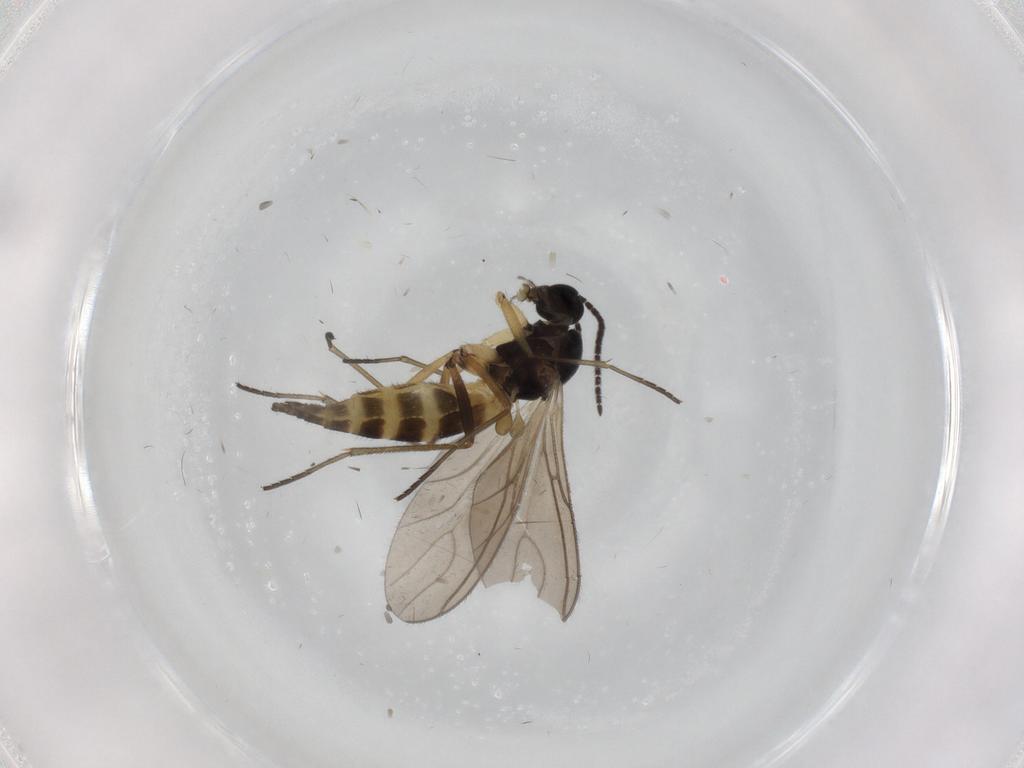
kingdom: Animalia
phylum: Arthropoda
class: Insecta
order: Diptera
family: Sciaridae
